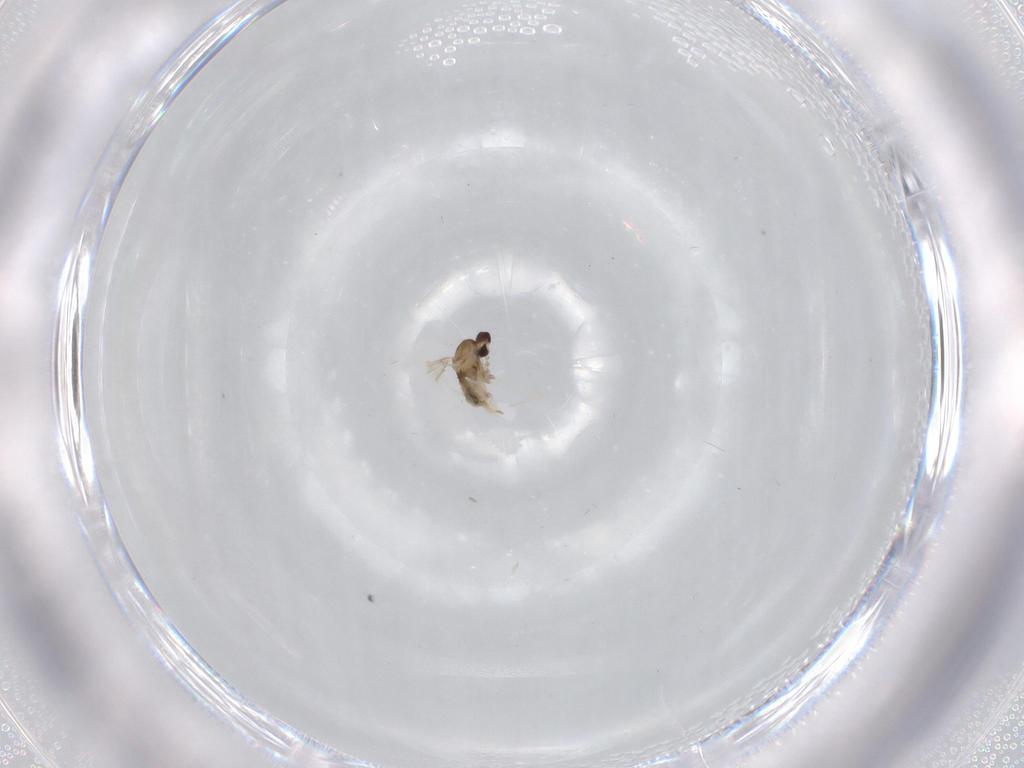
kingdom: Animalia
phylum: Arthropoda
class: Insecta
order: Diptera
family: Cecidomyiidae
